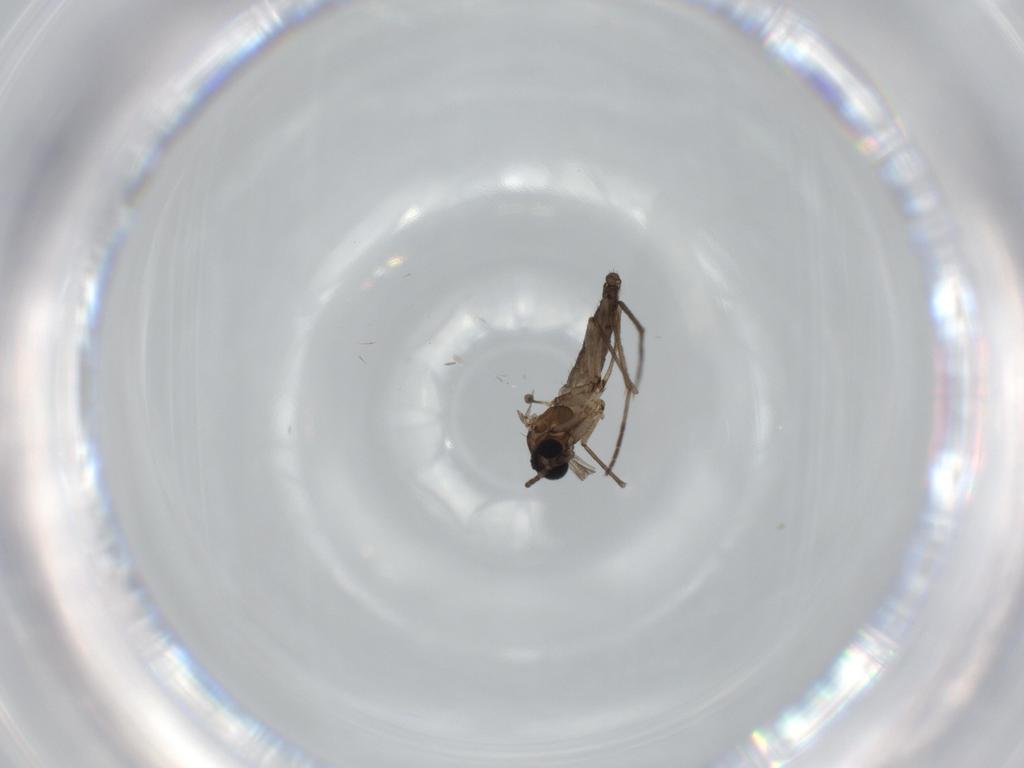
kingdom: Animalia
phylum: Arthropoda
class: Insecta
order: Diptera
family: Sciaridae
